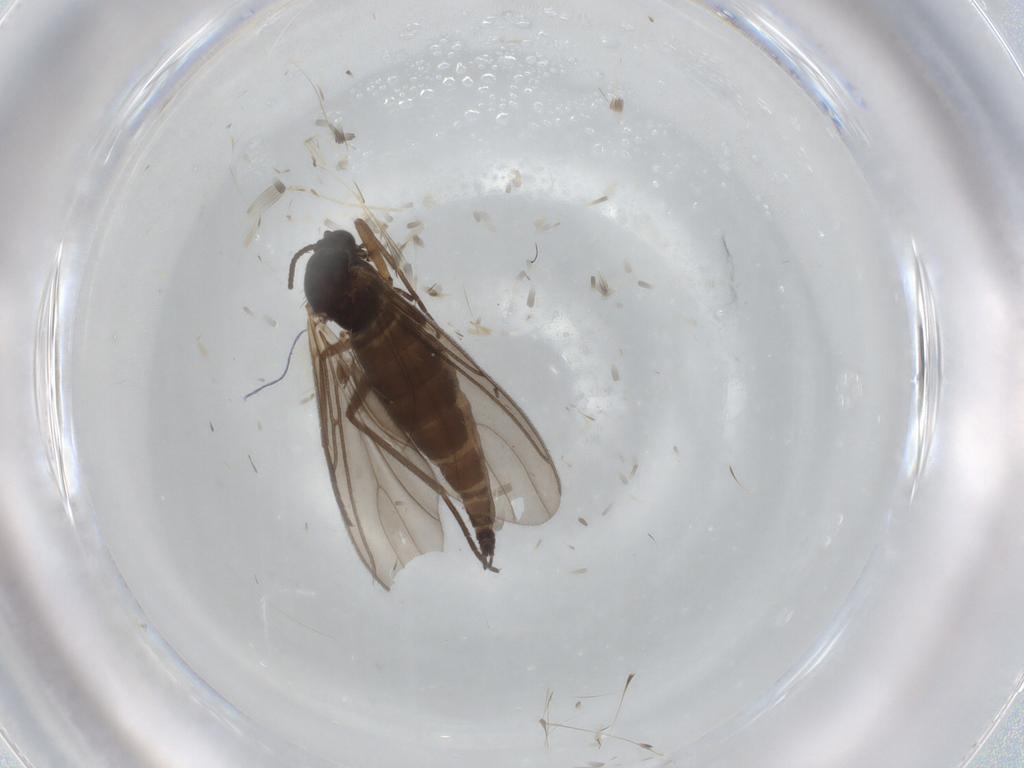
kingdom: Animalia
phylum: Arthropoda
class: Insecta
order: Diptera
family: Sciaridae
